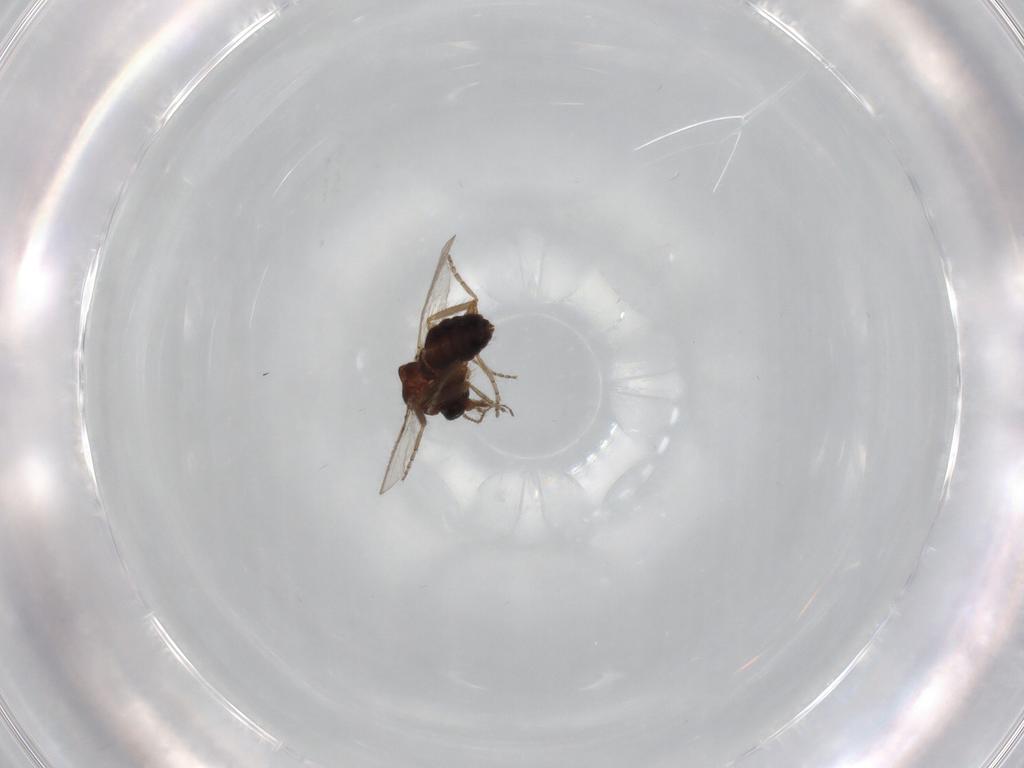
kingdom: Animalia
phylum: Arthropoda
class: Insecta
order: Diptera
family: Ceratopogonidae
